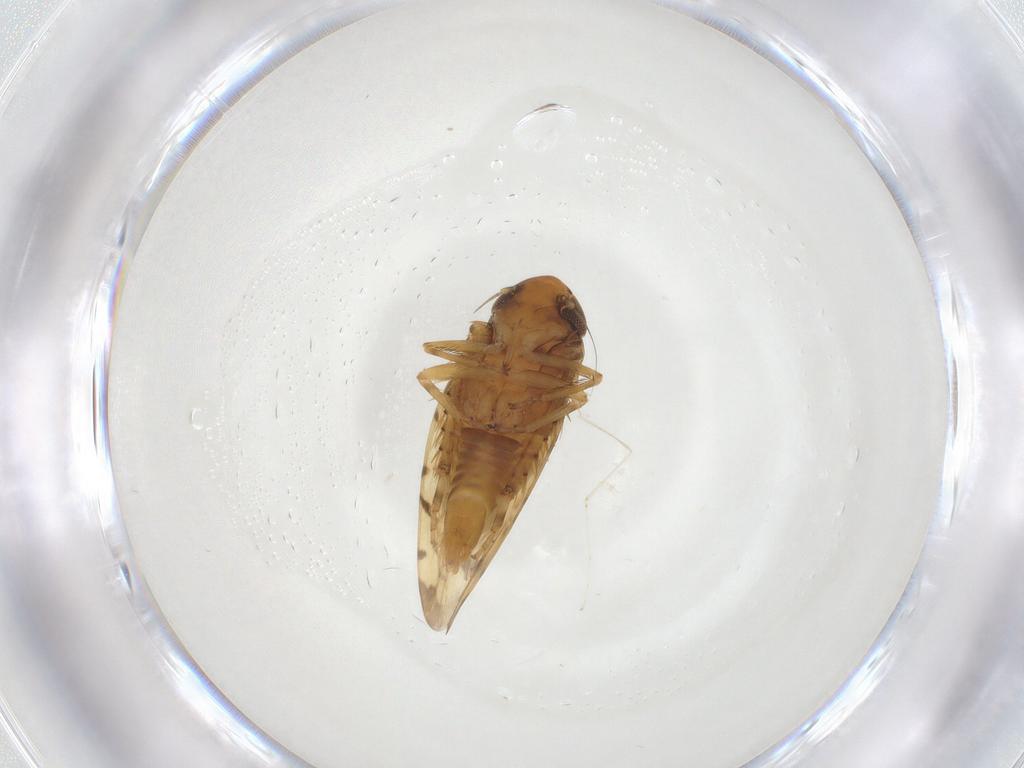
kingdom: Animalia
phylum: Arthropoda
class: Insecta
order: Hemiptera
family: Cicadellidae
